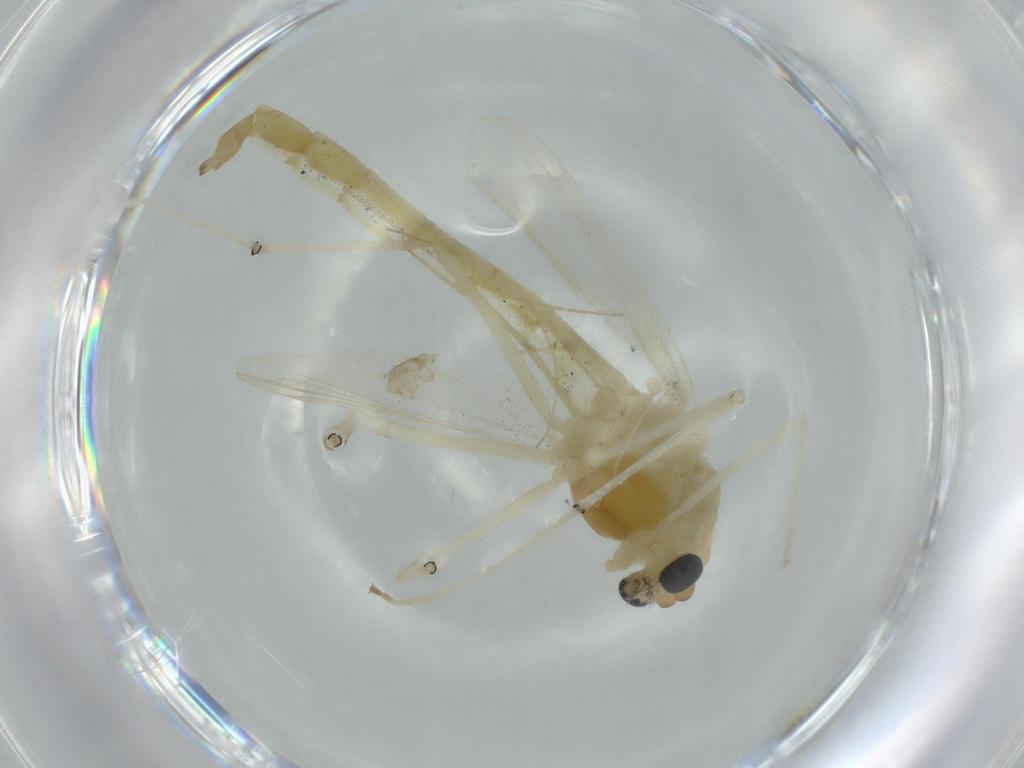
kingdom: Animalia
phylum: Arthropoda
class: Insecta
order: Diptera
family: Chironomidae
